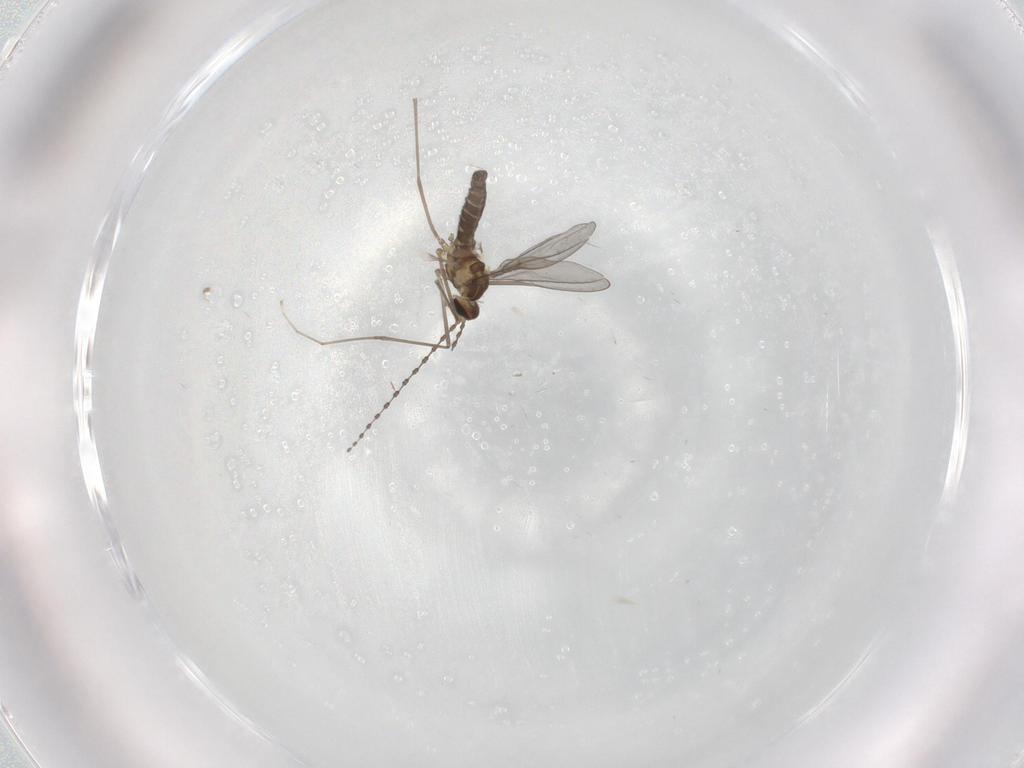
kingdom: Animalia
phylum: Arthropoda
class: Insecta
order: Diptera
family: Cecidomyiidae
